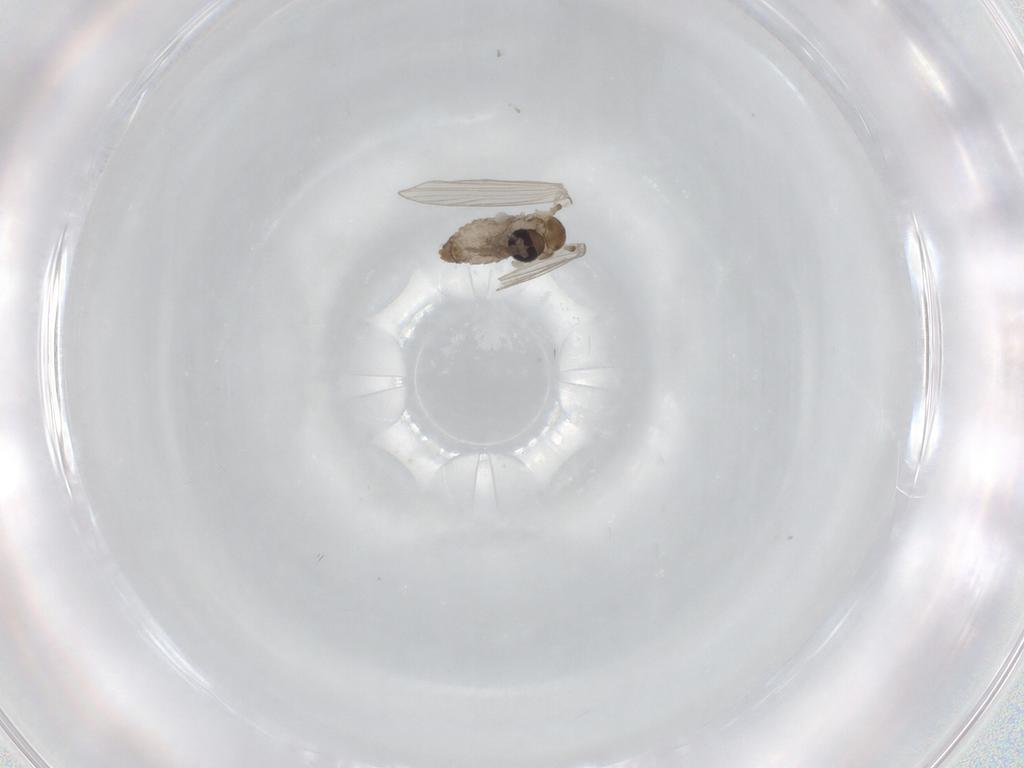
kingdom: Animalia
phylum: Arthropoda
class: Insecta
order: Diptera
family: Psychodidae
